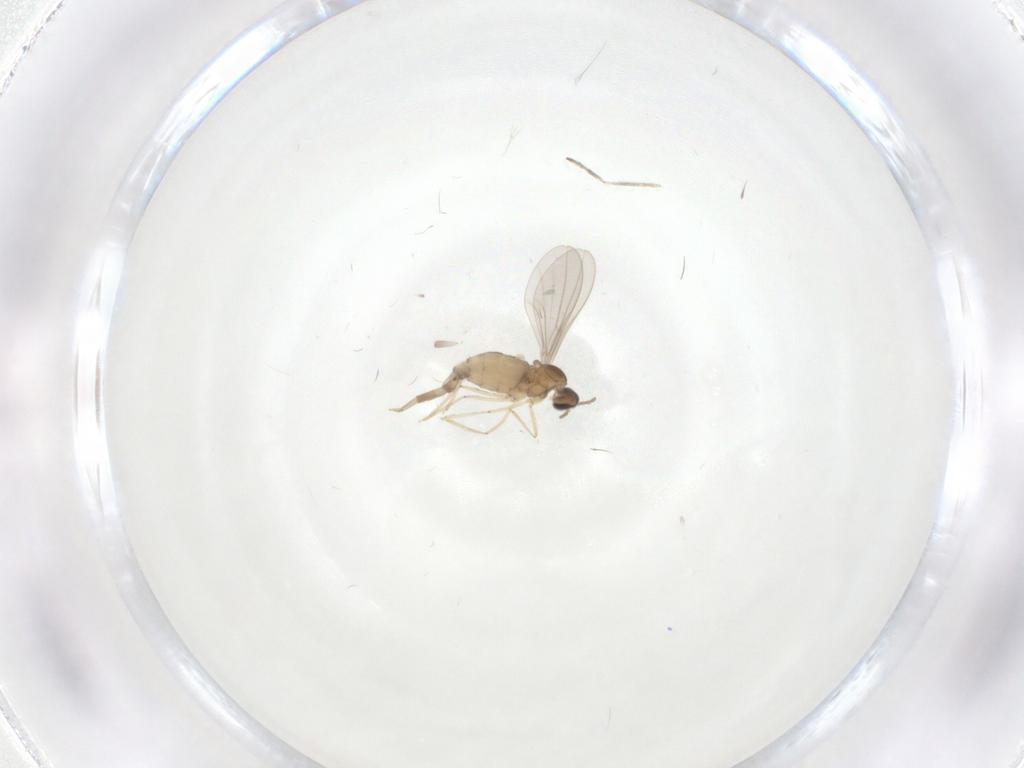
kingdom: Animalia
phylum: Arthropoda
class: Insecta
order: Diptera
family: Cecidomyiidae
